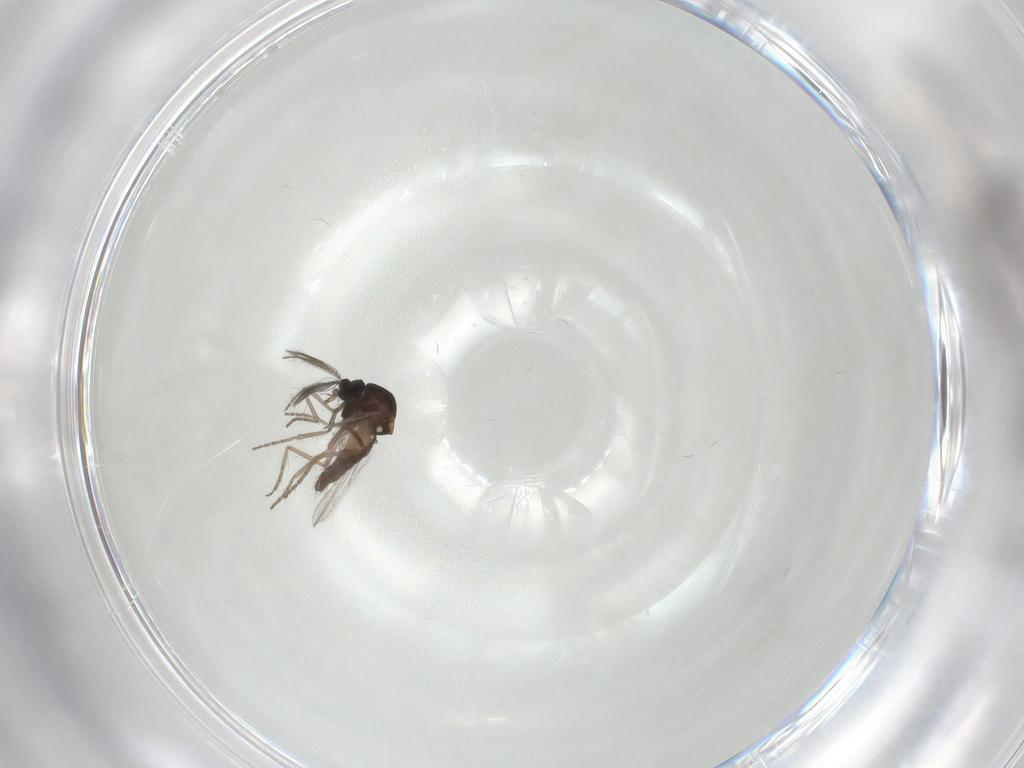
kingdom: Animalia
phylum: Arthropoda
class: Insecta
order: Diptera
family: Ceratopogonidae
